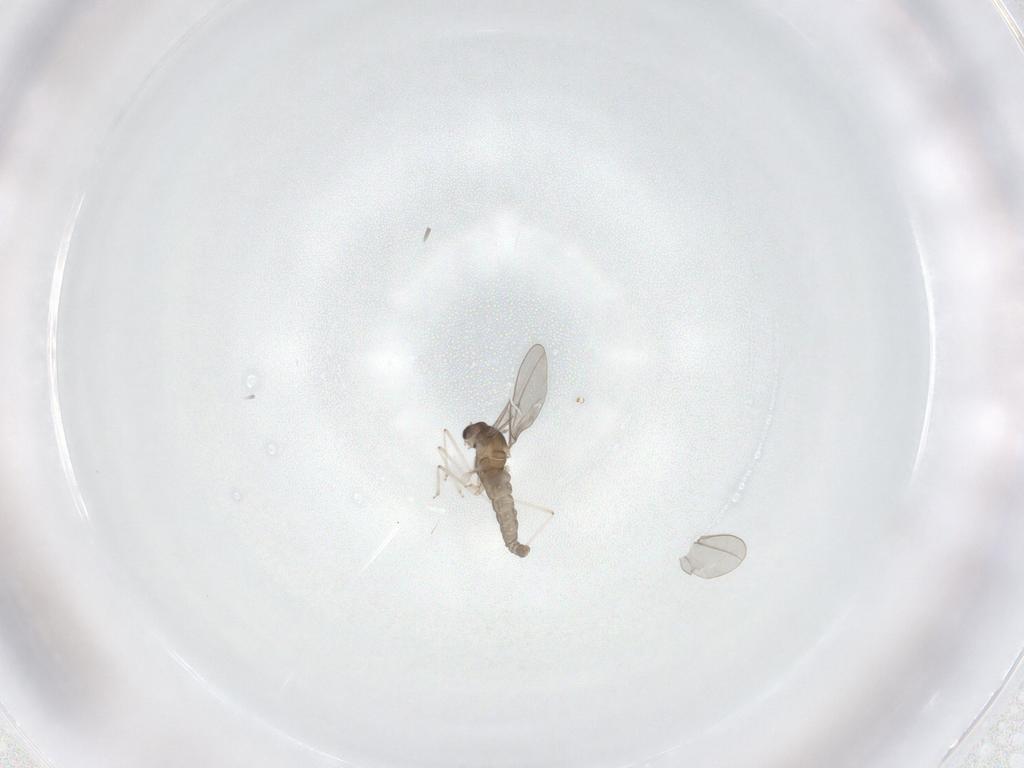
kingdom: Animalia
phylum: Arthropoda
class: Insecta
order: Diptera
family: Cecidomyiidae
